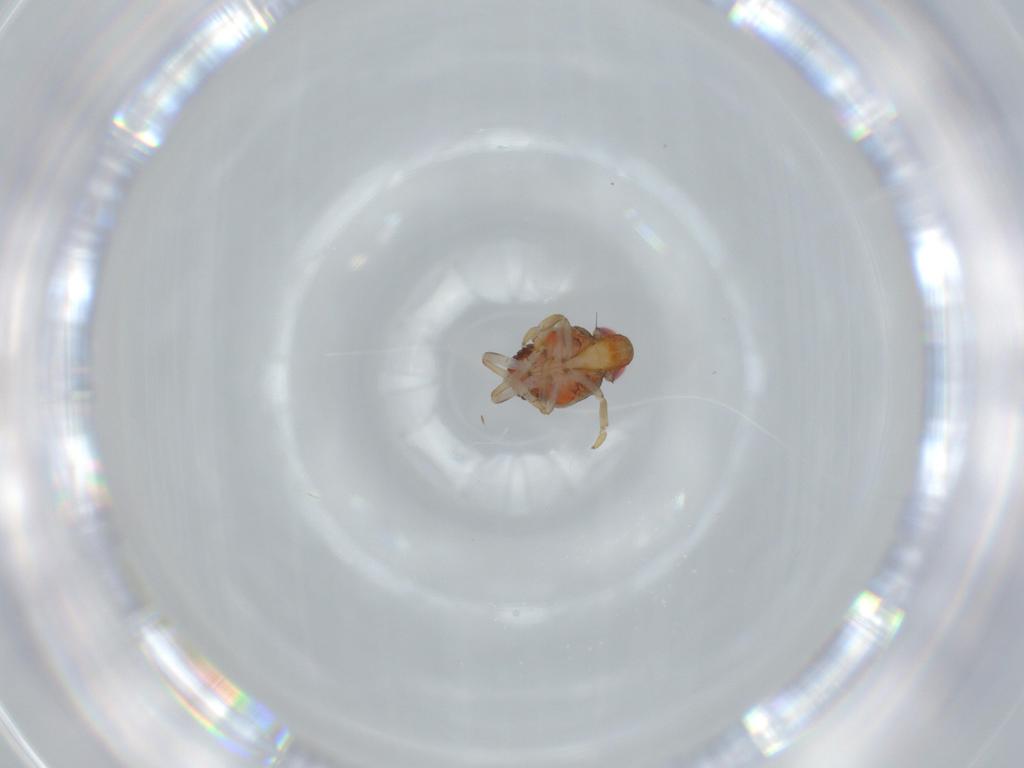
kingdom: Animalia
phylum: Arthropoda
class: Insecta
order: Hemiptera
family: Issidae
